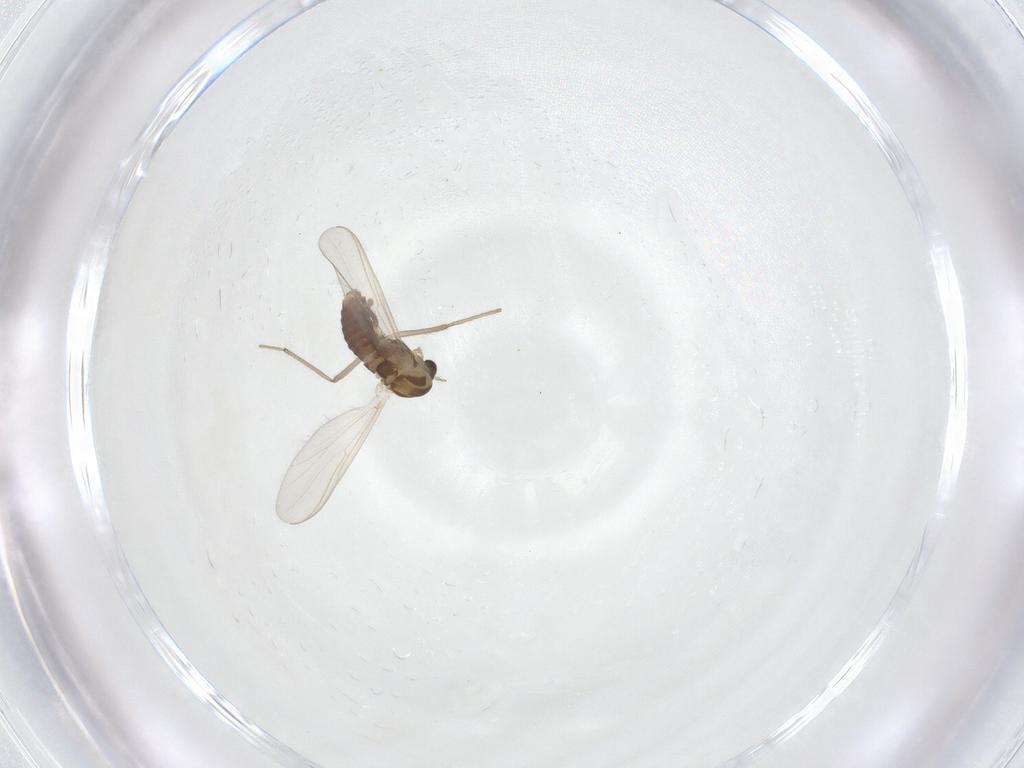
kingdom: Animalia
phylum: Arthropoda
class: Insecta
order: Diptera
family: Chironomidae
